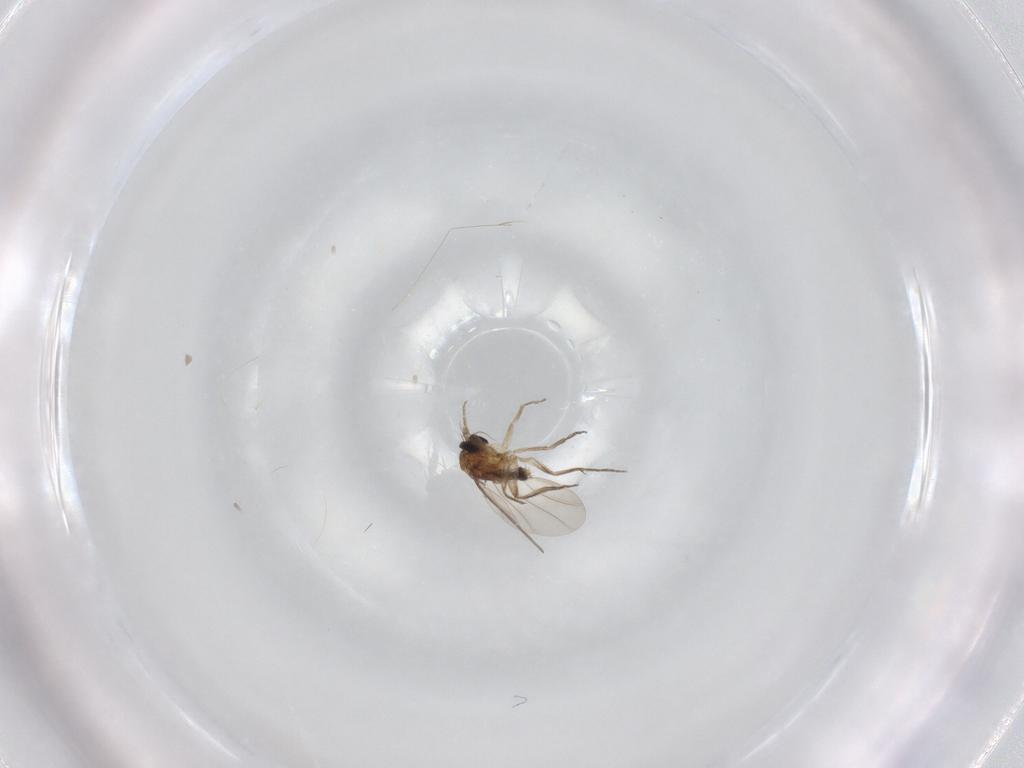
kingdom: Animalia
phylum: Arthropoda
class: Insecta
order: Diptera
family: Phoridae
